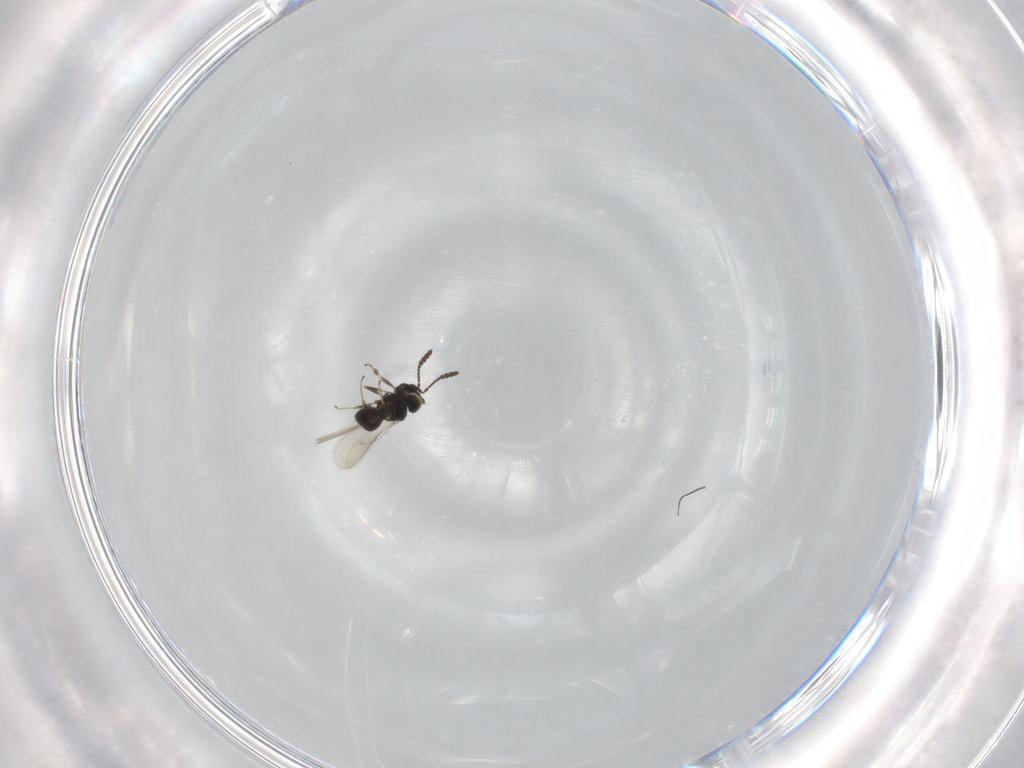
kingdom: Animalia
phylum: Arthropoda
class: Insecta
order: Hymenoptera
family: Scelionidae
